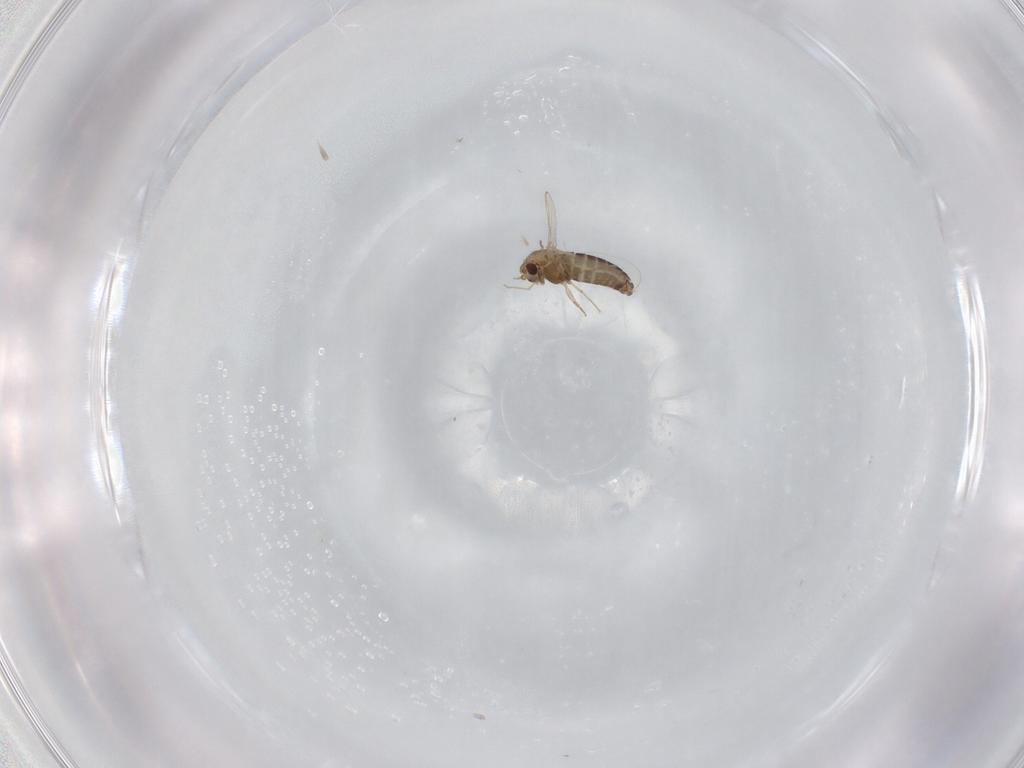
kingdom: Animalia
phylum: Arthropoda
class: Insecta
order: Diptera
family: Chironomidae
